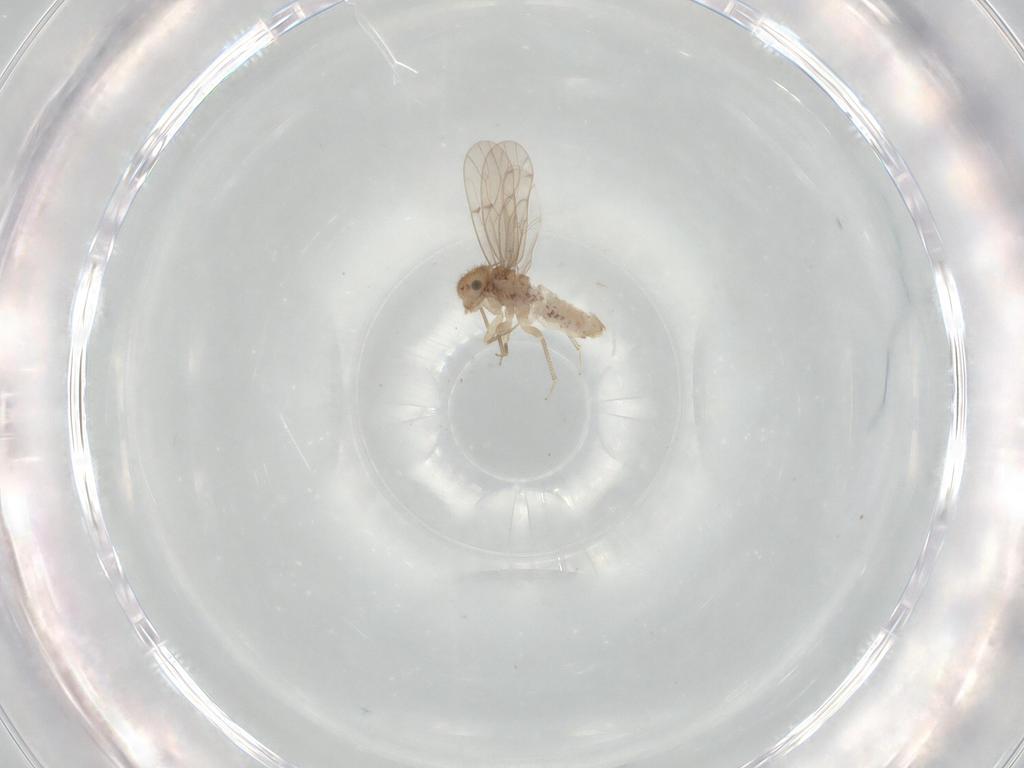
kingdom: Animalia
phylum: Arthropoda
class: Insecta
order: Psocodea
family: Ectopsocidae
